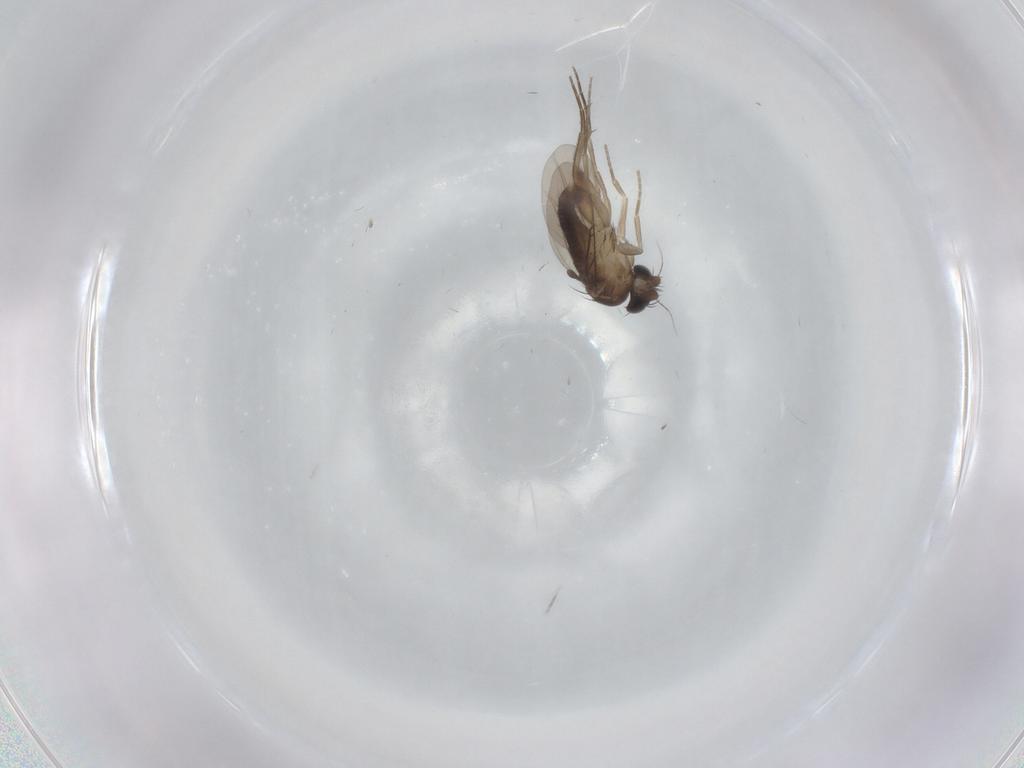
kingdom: Animalia
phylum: Arthropoda
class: Insecta
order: Diptera
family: Phoridae
